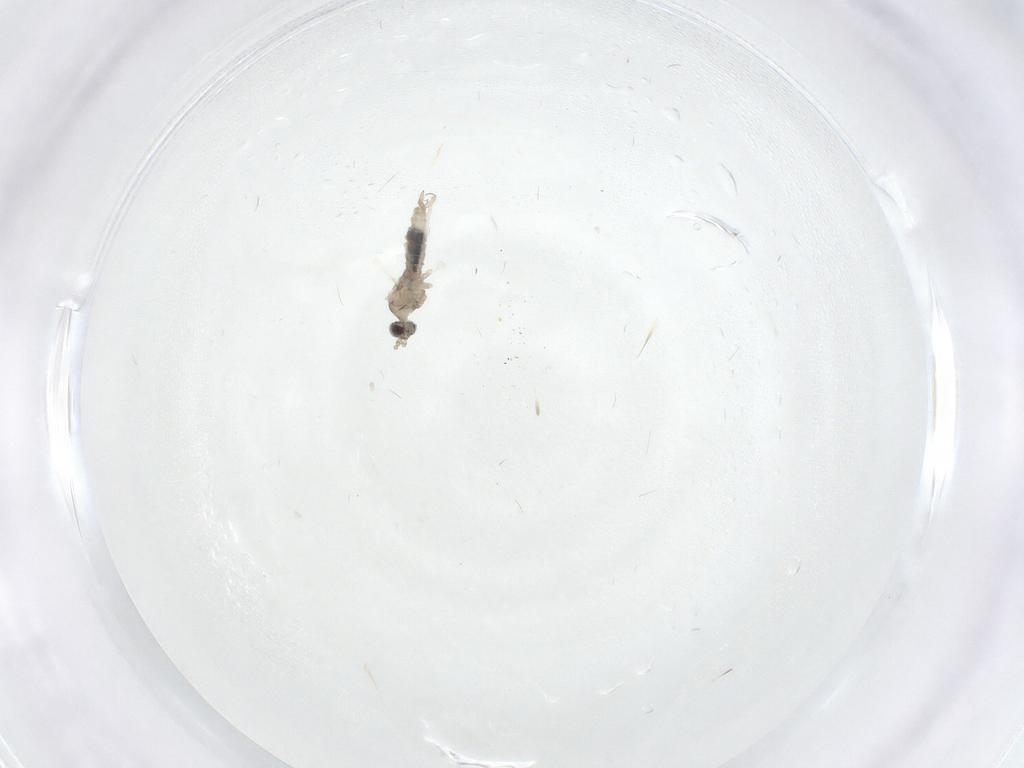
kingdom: Animalia
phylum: Arthropoda
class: Insecta
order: Diptera
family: Cecidomyiidae
